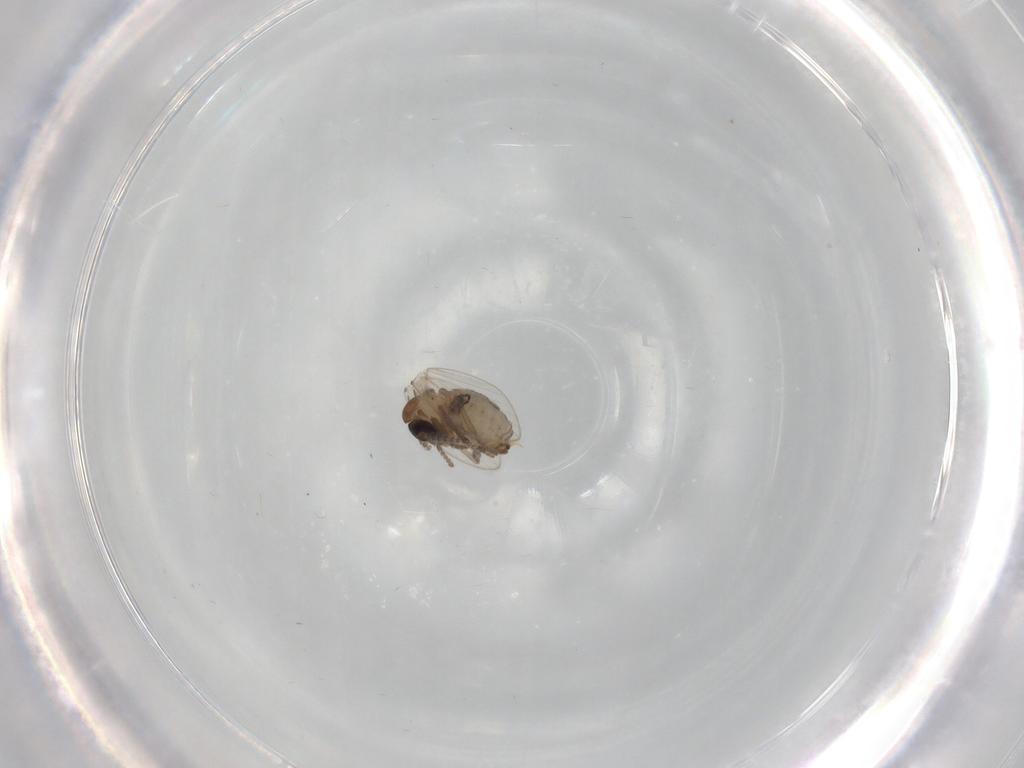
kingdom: Animalia
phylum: Arthropoda
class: Insecta
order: Diptera
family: Psychodidae
